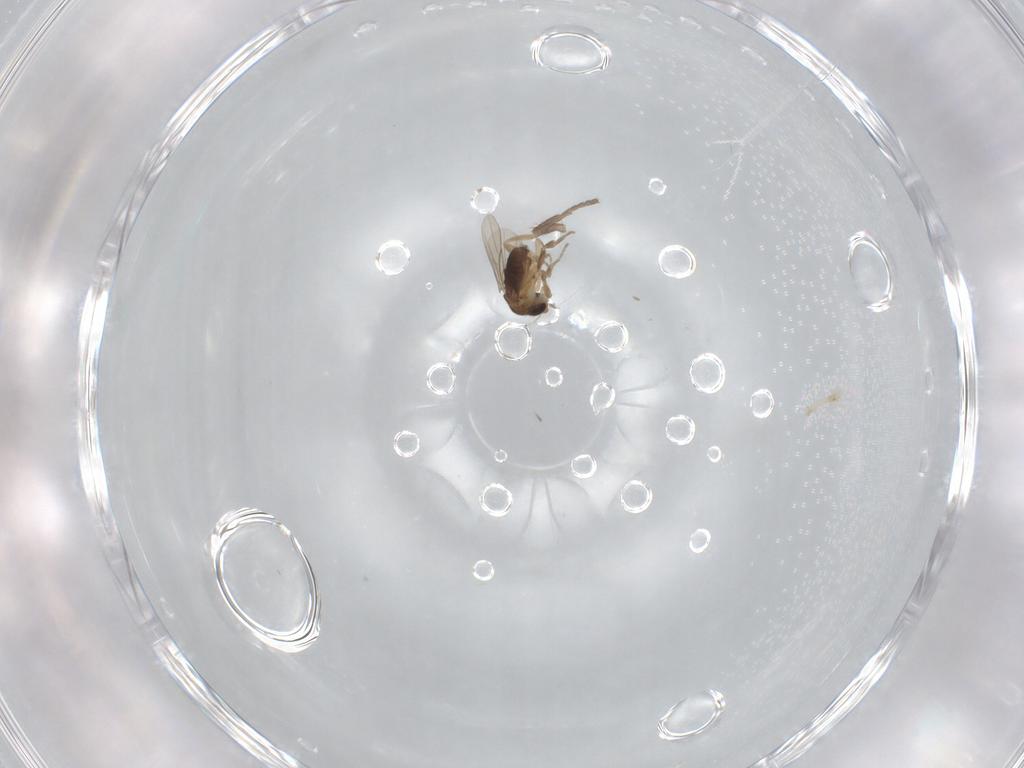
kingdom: Animalia
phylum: Arthropoda
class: Insecta
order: Diptera
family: Sphaeroceridae
